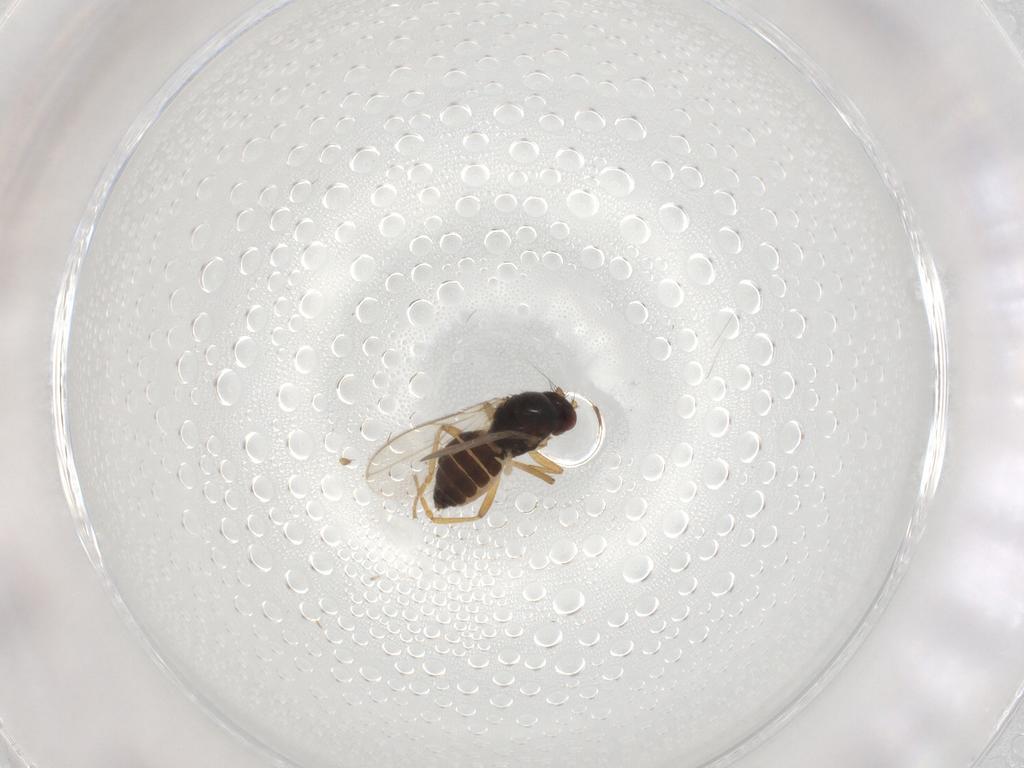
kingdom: Animalia
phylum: Arthropoda
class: Insecta
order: Diptera
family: Sphaeroceridae
